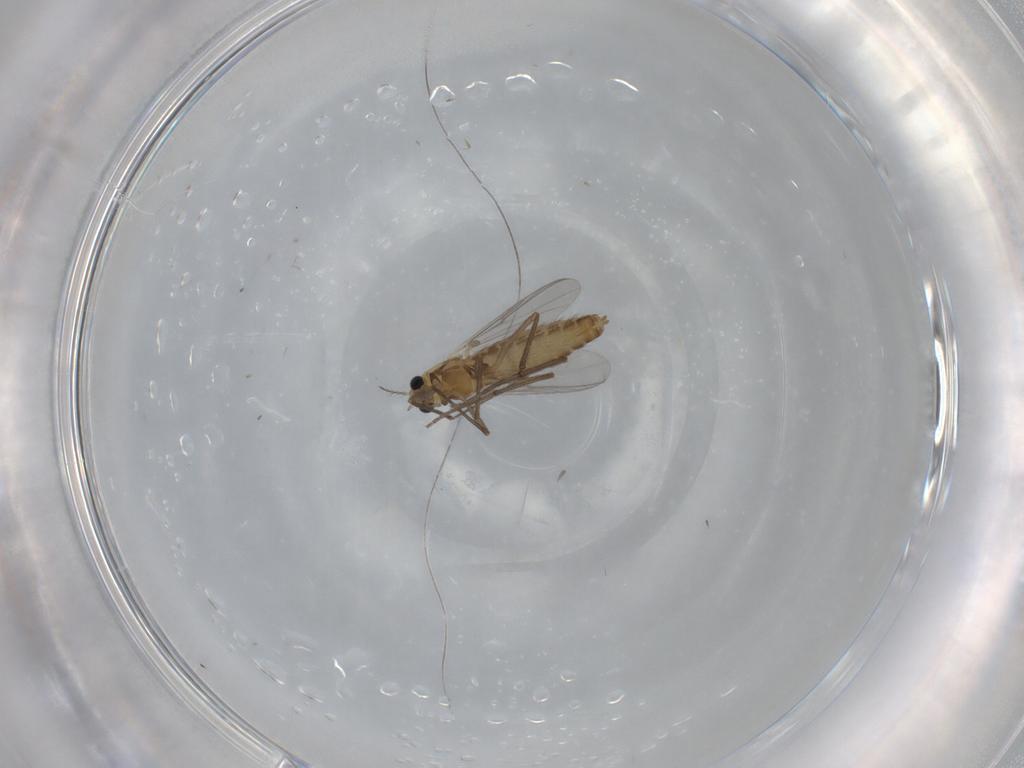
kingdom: Animalia
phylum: Arthropoda
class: Insecta
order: Diptera
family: Chironomidae
